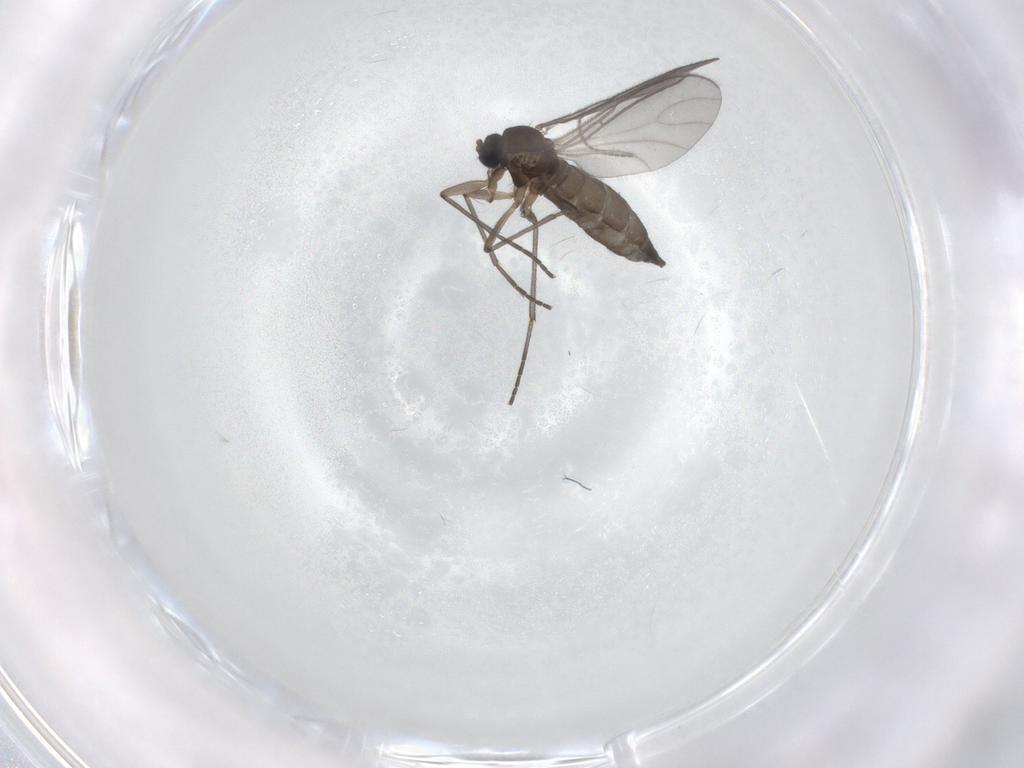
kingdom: Animalia
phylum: Arthropoda
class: Insecta
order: Diptera
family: Sciaridae
